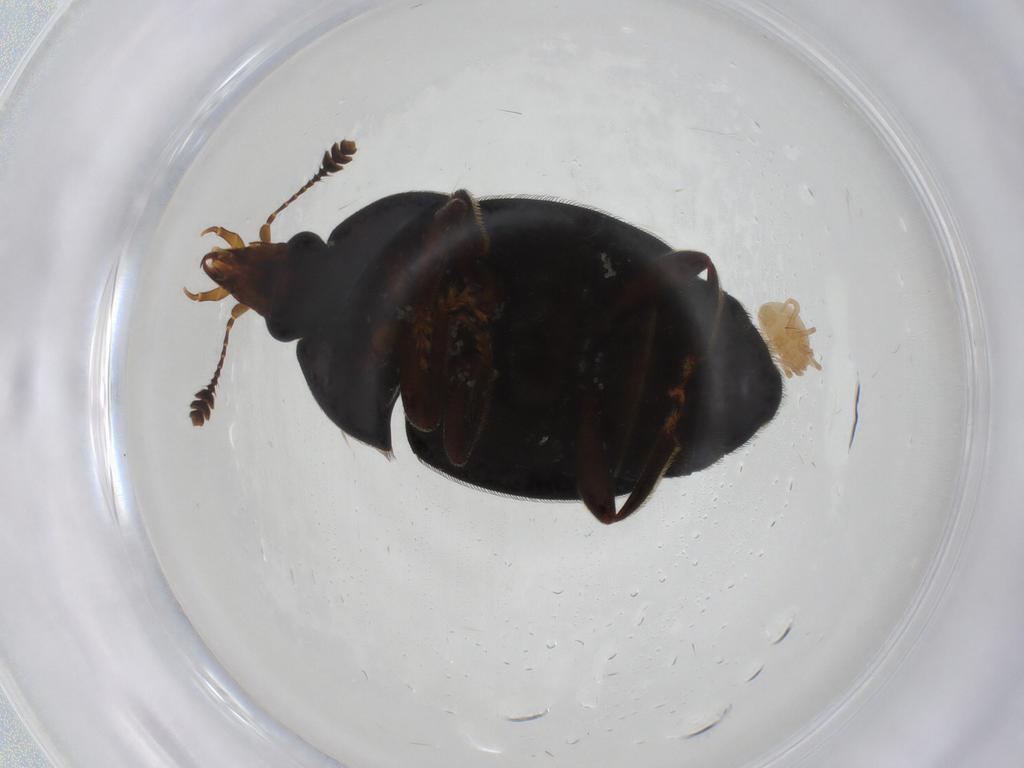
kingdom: Animalia
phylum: Arthropoda
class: Arachnida
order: Mesostigmata
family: Blattisociidae
